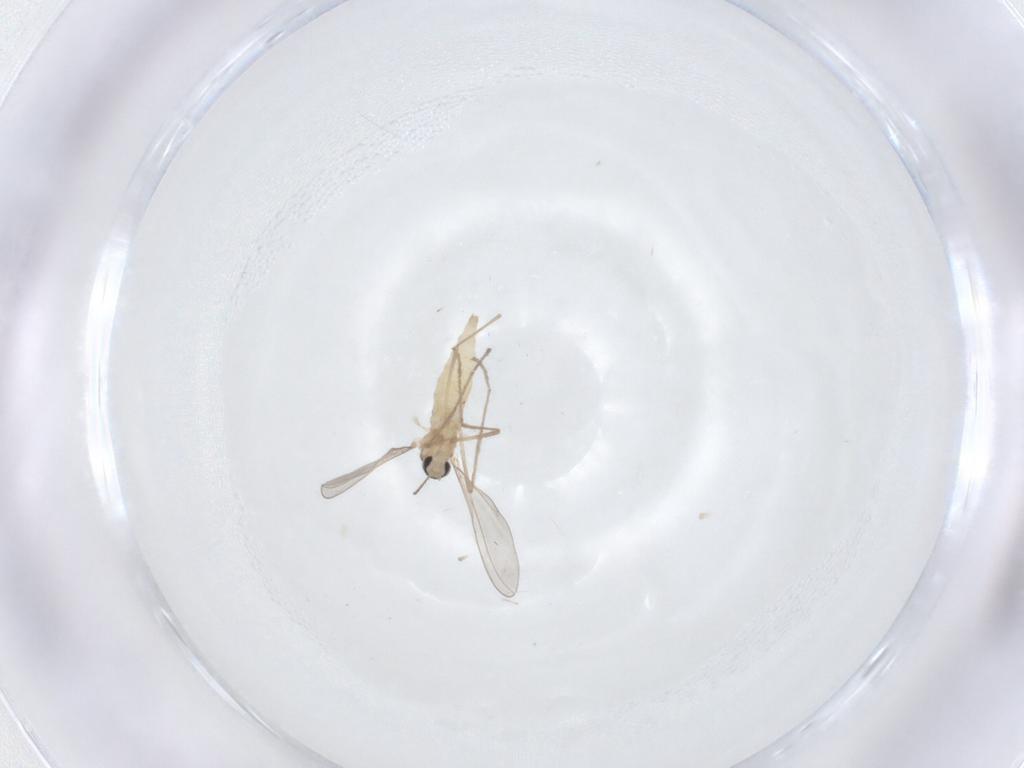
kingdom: Animalia
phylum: Arthropoda
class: Insecta
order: Diptera
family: Cecidomyiidae
